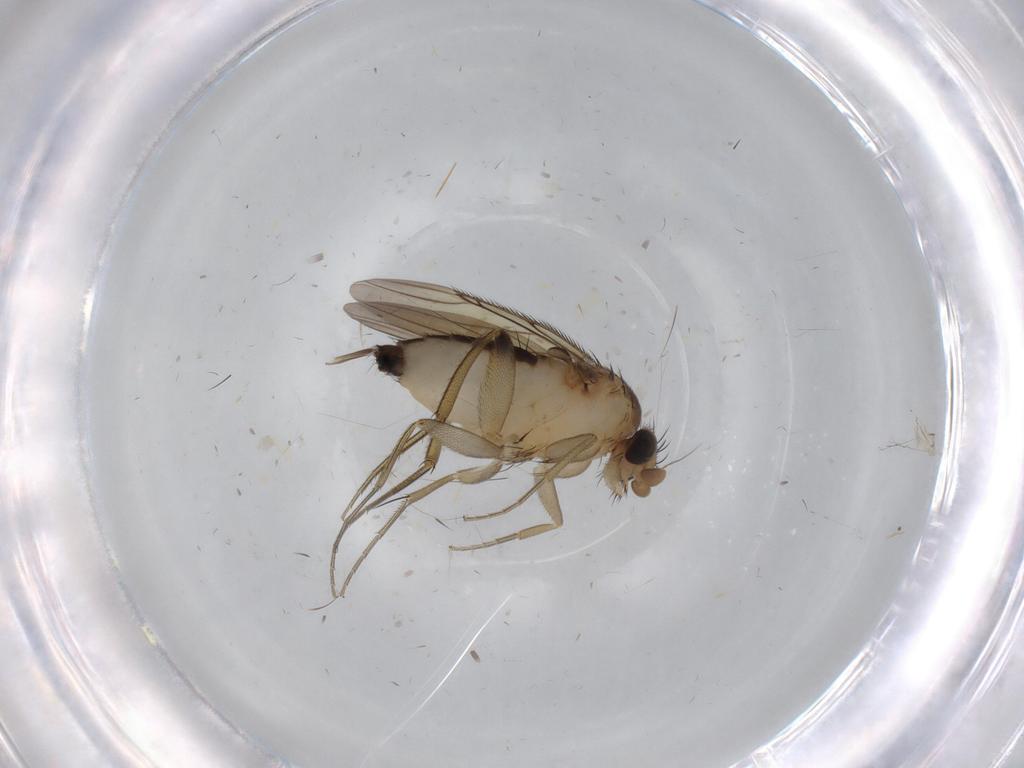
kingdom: Animalia
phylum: Arthropoda
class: Insecta
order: Diptera
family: Phoridae
